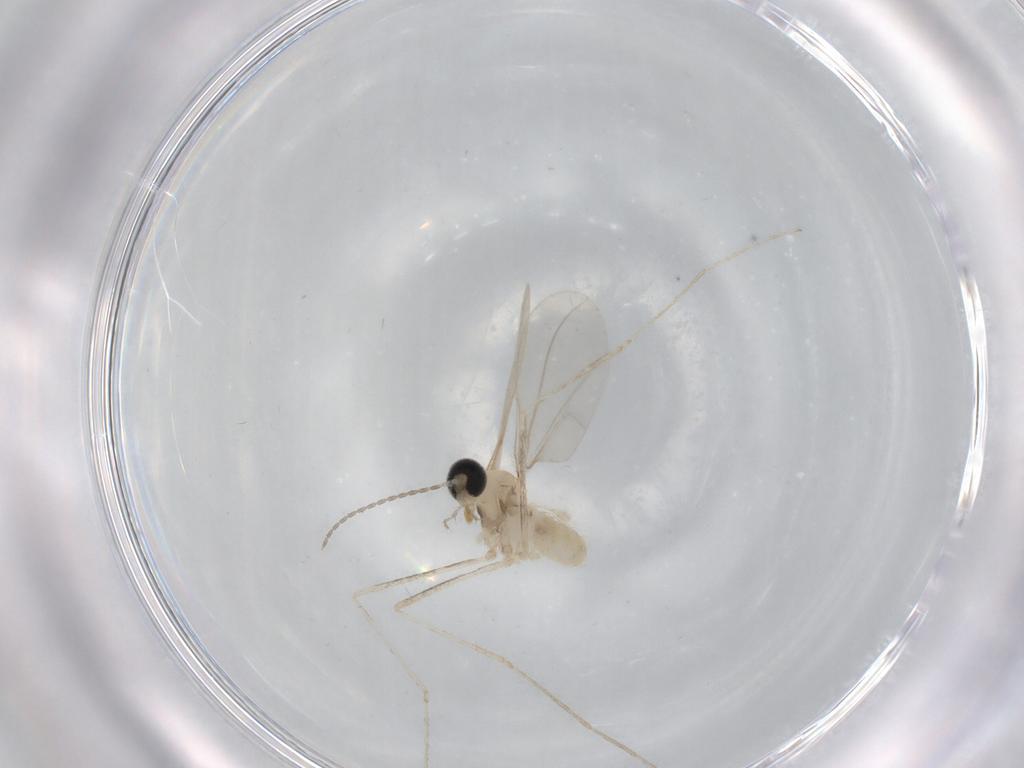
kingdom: Animalia
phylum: Arthropoda
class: Insecta
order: Diptera
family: Cecidomyiidae
